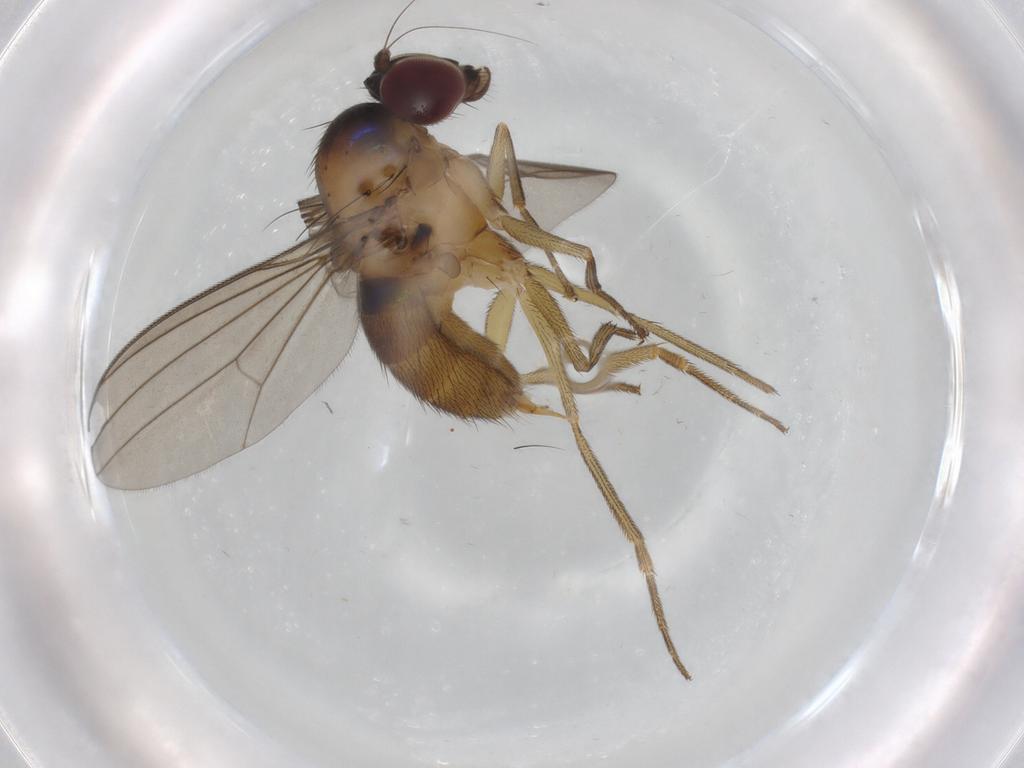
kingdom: Animalia
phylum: Arthropoda
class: Insecta
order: Diptera
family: Dolichopodidae
